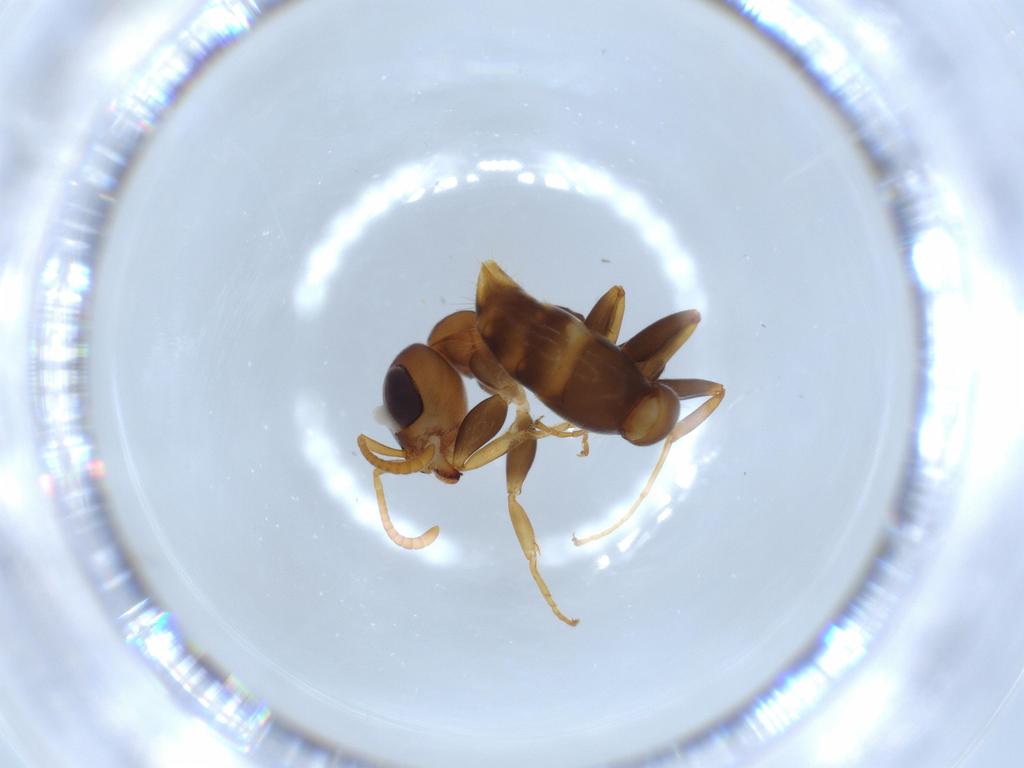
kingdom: Animalia
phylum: Arthropoda
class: Insecta
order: Hymenoptera
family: Formicidae
